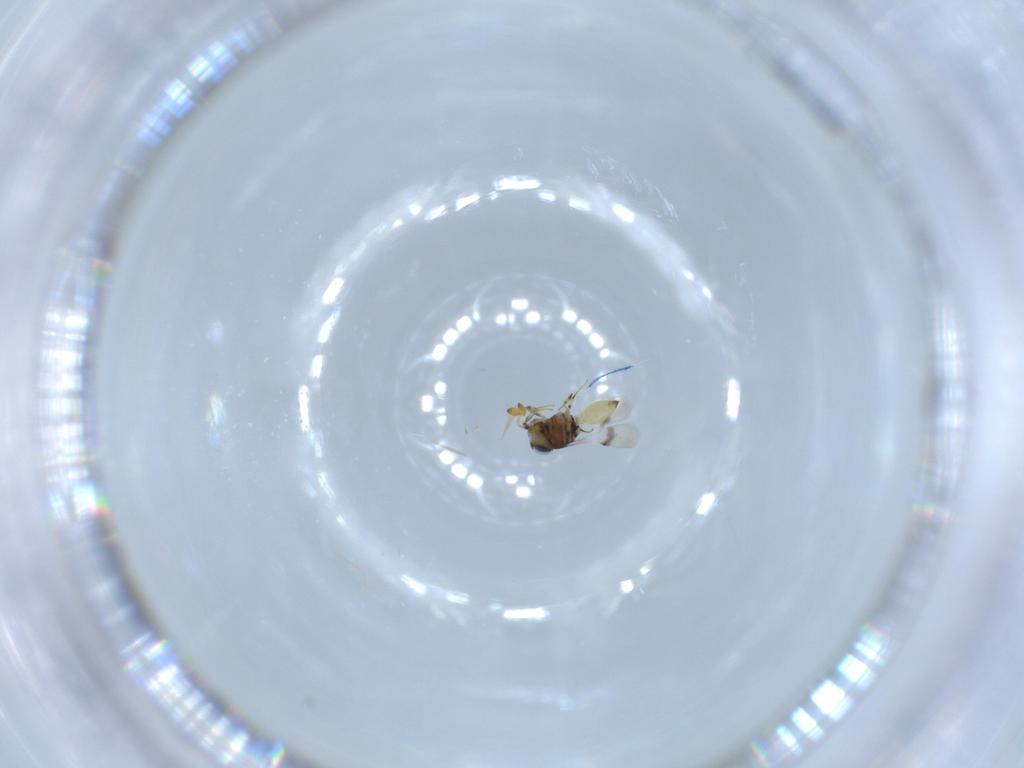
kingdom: Animalia
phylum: Arthropoda
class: Insecta
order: Hymenoptera
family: Scelionidae
